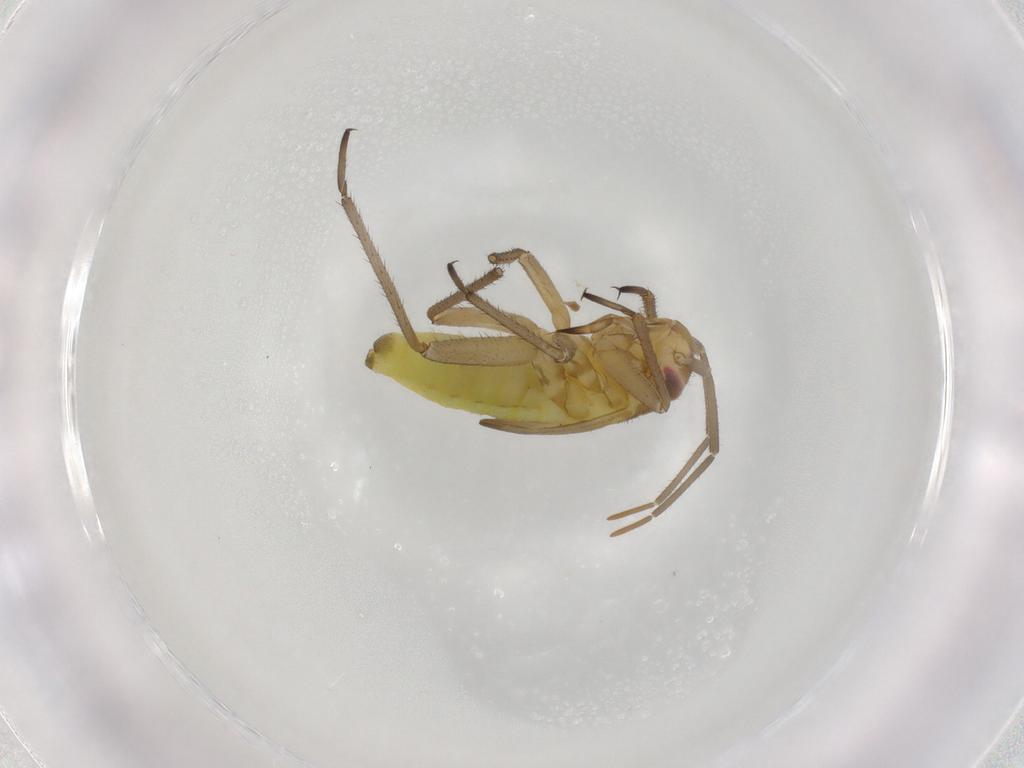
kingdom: Animalia
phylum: Arthropoda
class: Insecta
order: Hemiptera
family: Miridae
